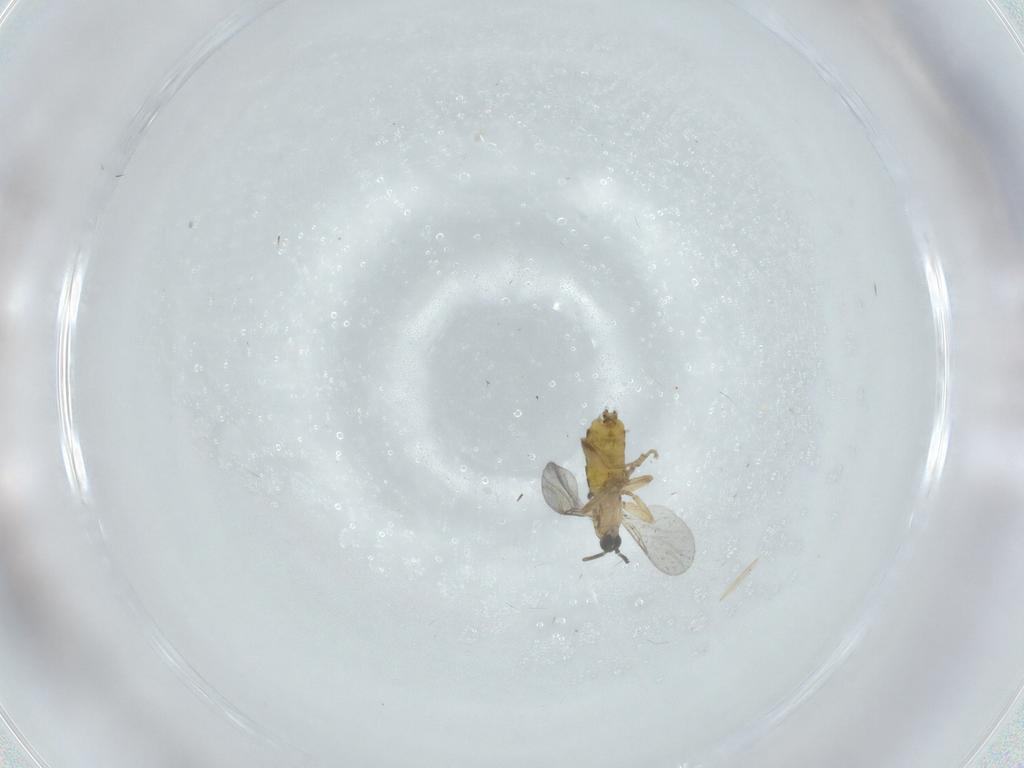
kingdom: Animalia
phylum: Arthropoda
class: Insecta
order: Diptera
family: Scatopsidae
